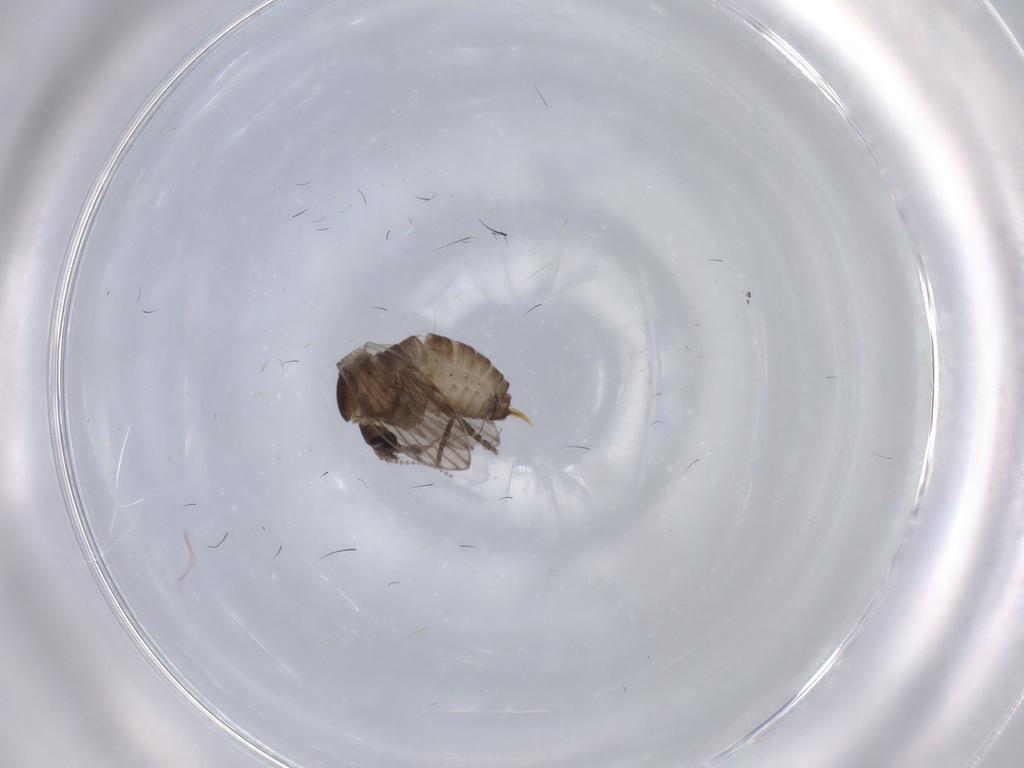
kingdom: Animalia
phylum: Arthropoda
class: Insecta
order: Diptera
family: Psychodidae
